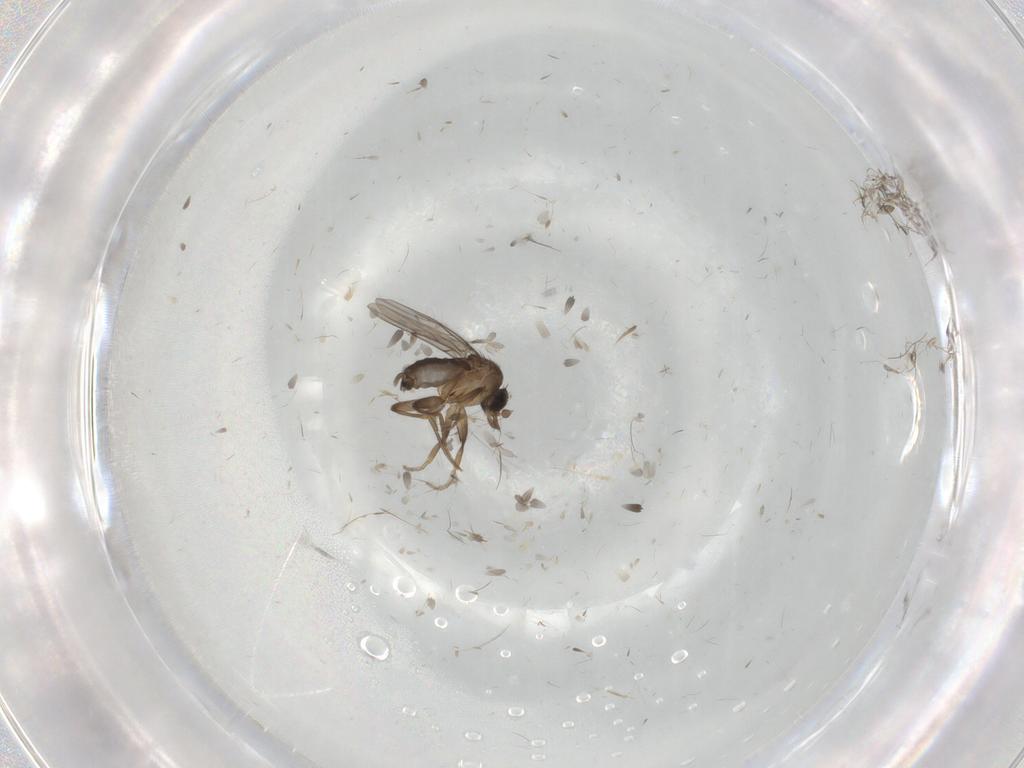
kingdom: Animalia
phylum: Arthropoda
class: Insecta
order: Diptera
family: Phoridae
